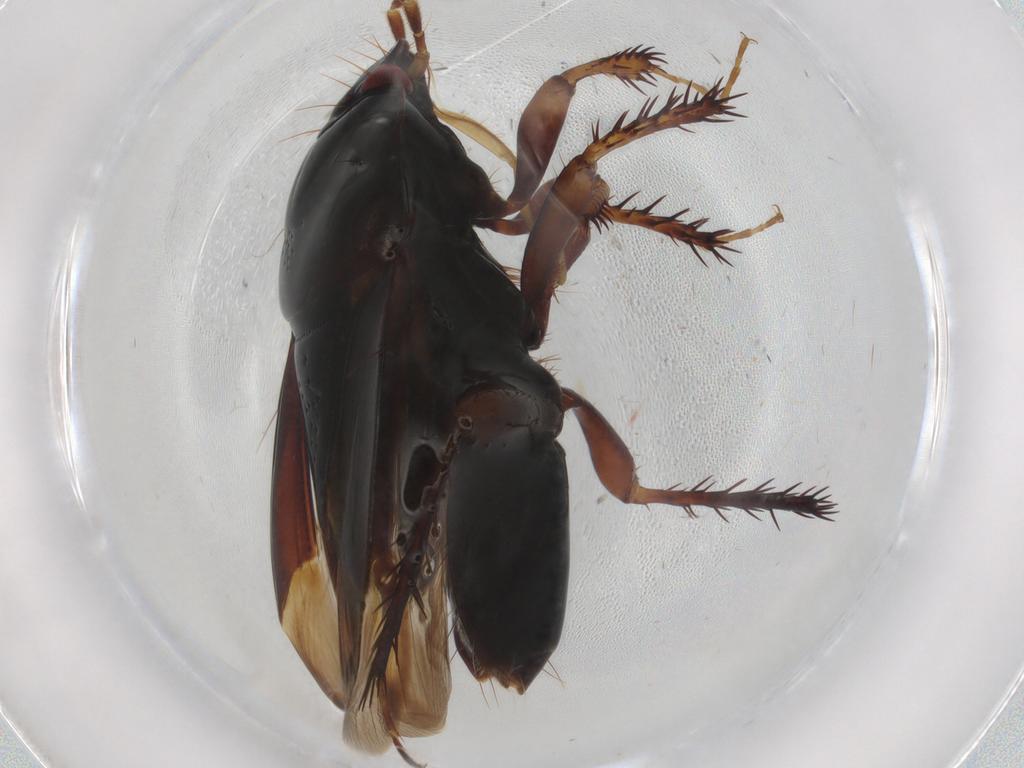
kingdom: Animalia
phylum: Arthropoda
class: Insecta
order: Hemiptera
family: Cydnidae
